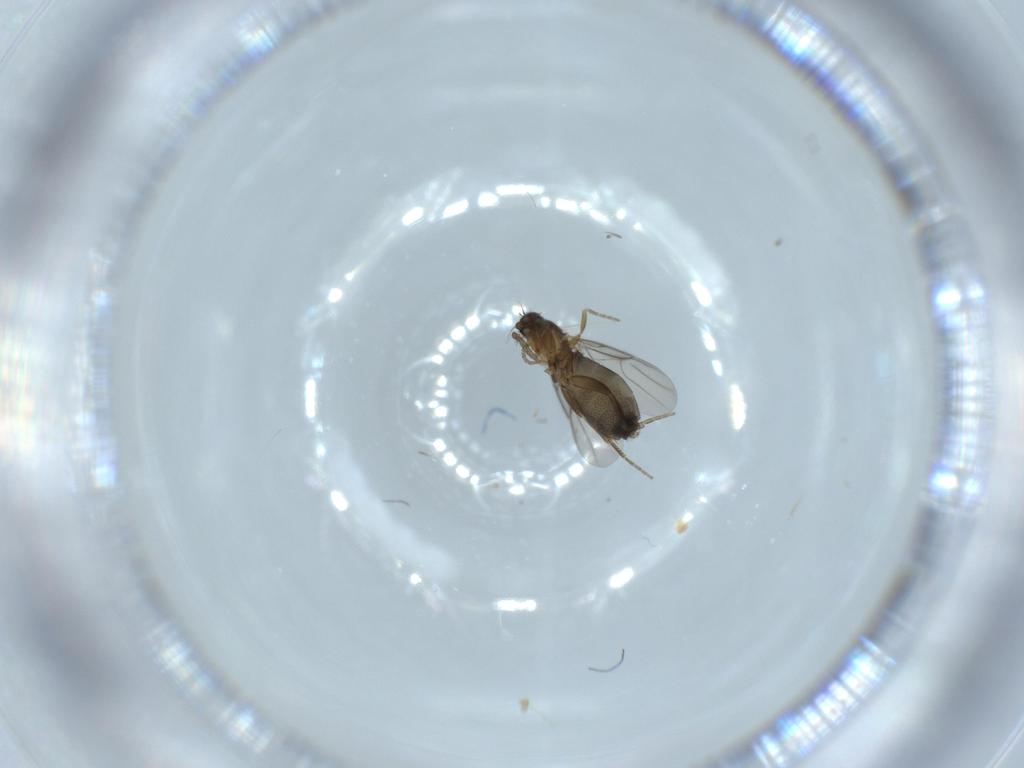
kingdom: Animalia
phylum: Arthropoda
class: Insecta
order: Diptera
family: Phoridae
